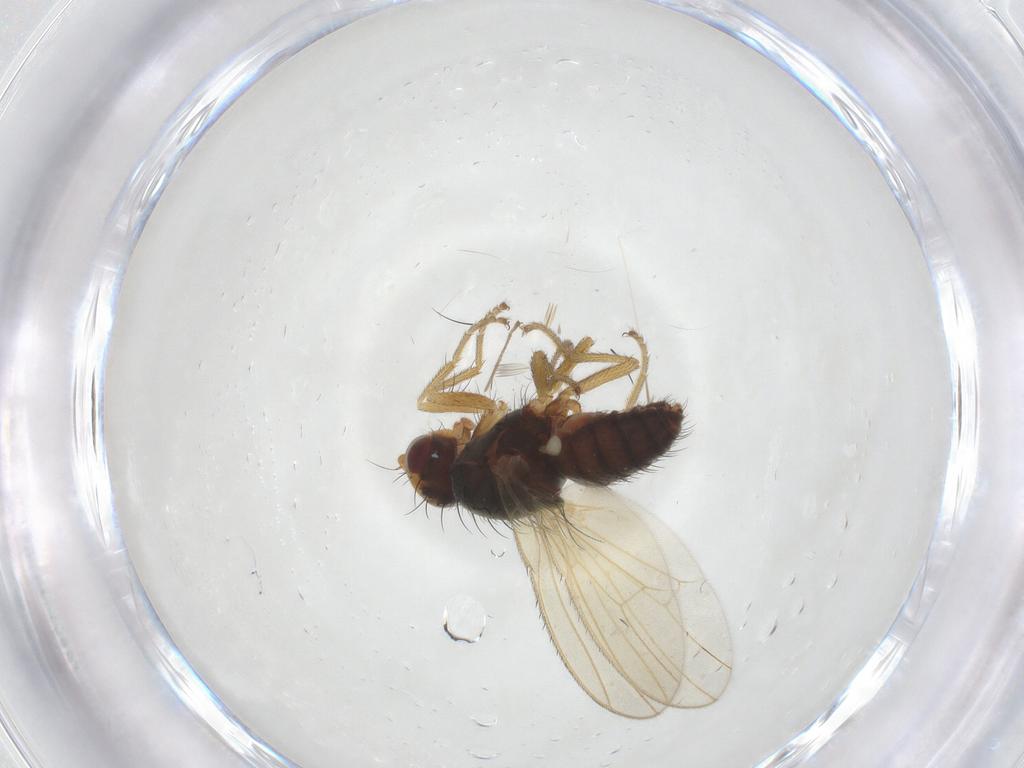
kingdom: Animalia
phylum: Arthropoda
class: Insecta
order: Diptera
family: Heleomyzidae
